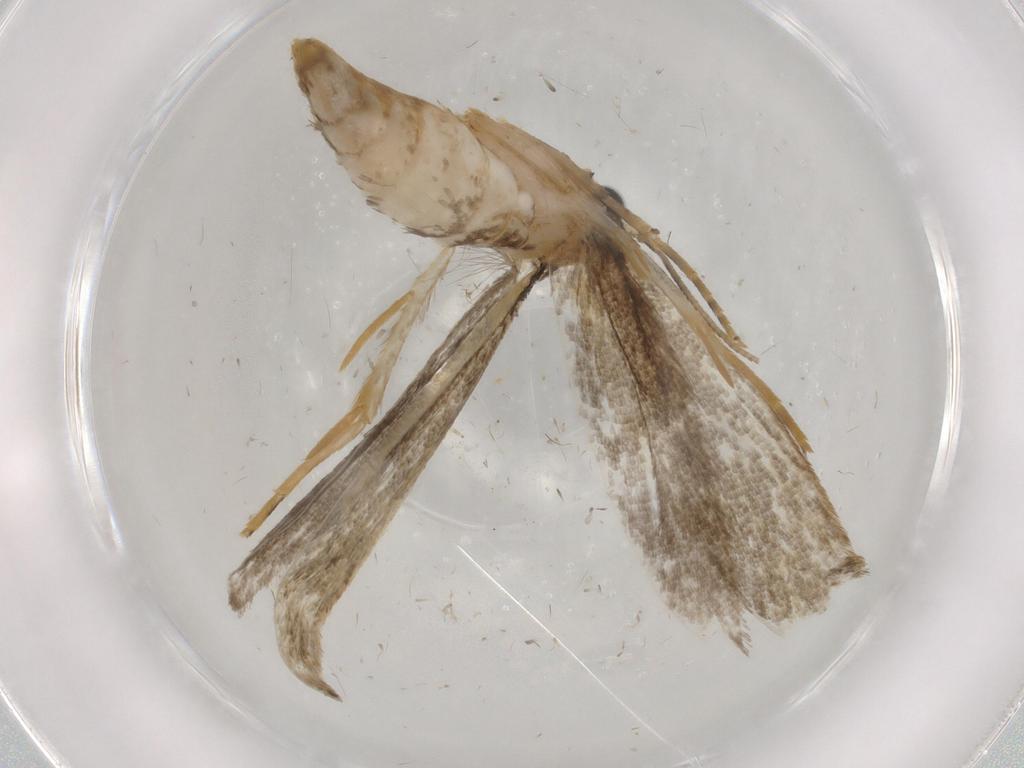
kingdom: Animalia
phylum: Arthropoda
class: Insecta
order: Lepidoptera
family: Tineidae
